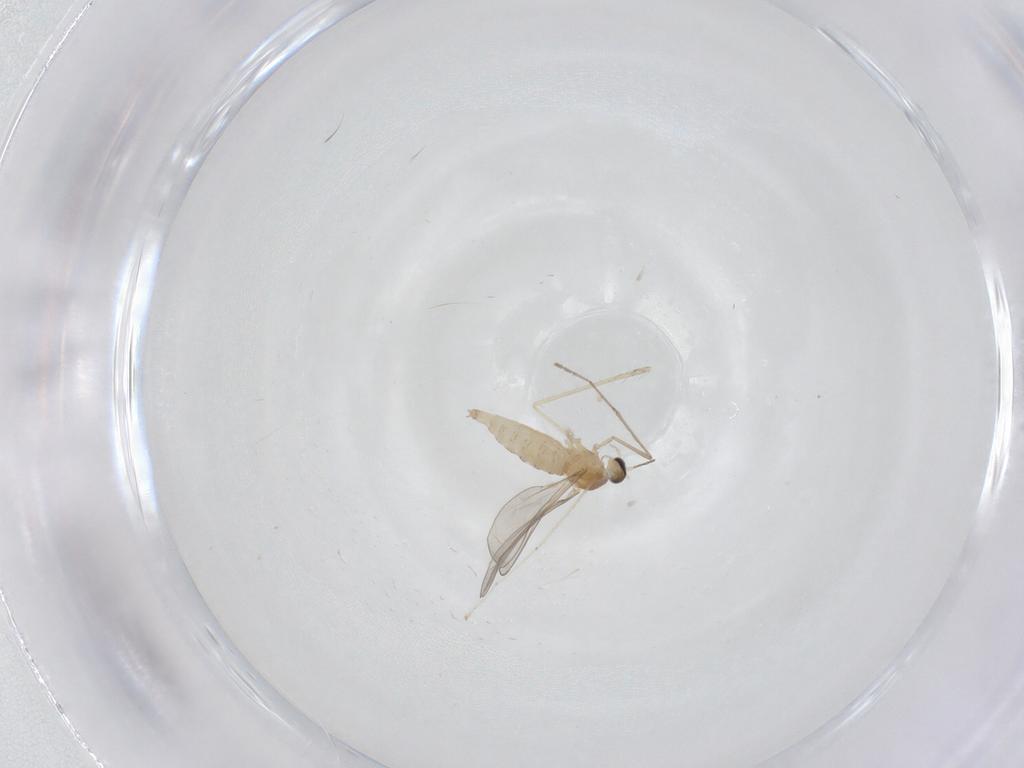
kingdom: Animalia
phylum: Arthropoda
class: Insecta
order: Diptera
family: Cecidomyiidae
